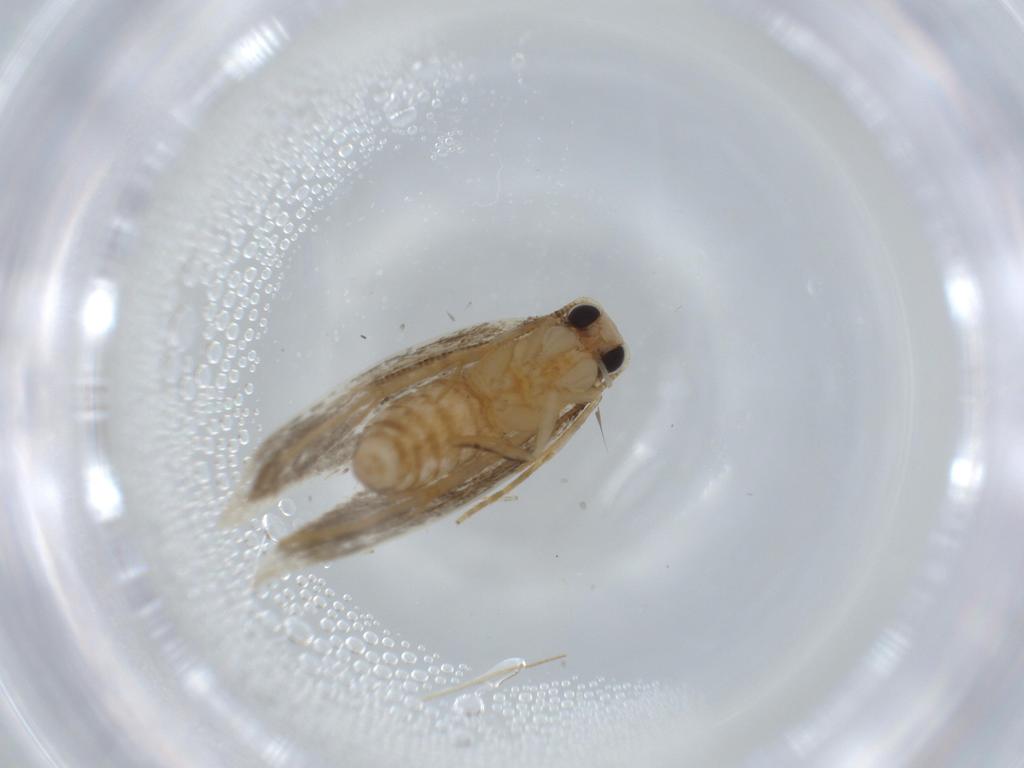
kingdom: Animalia
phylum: Arthropoda
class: Insecta
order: Lepidoptera
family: Tineidae
